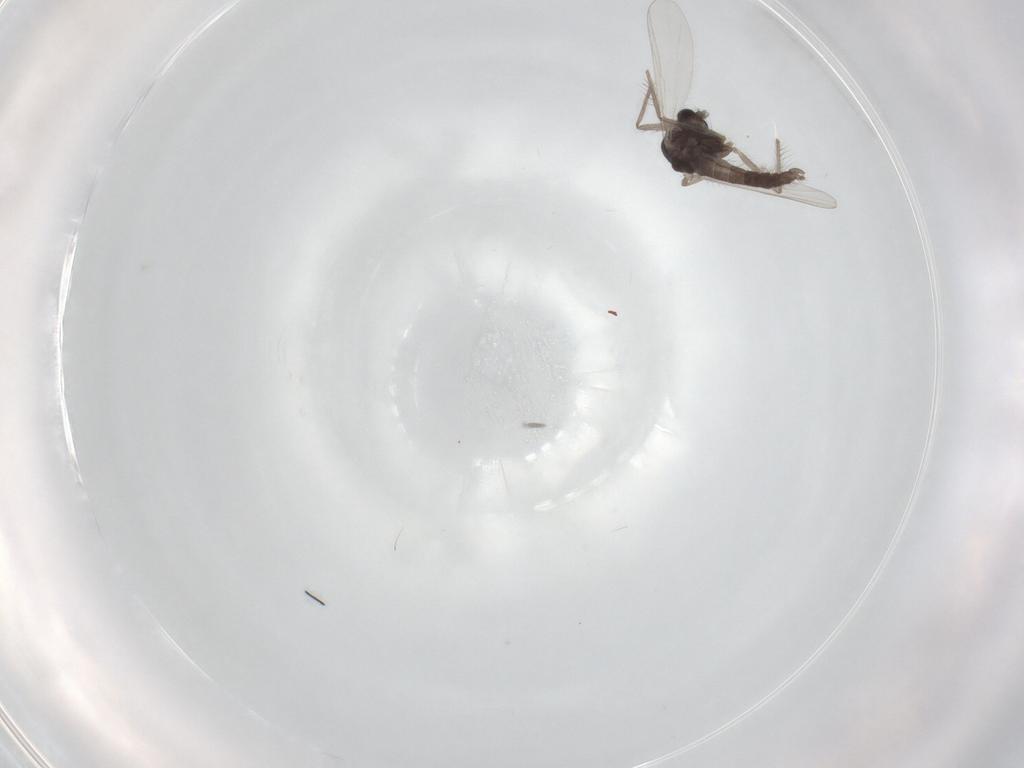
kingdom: Animalia
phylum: Arthropoda
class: Insecta
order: Diptera
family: Chironomidae
